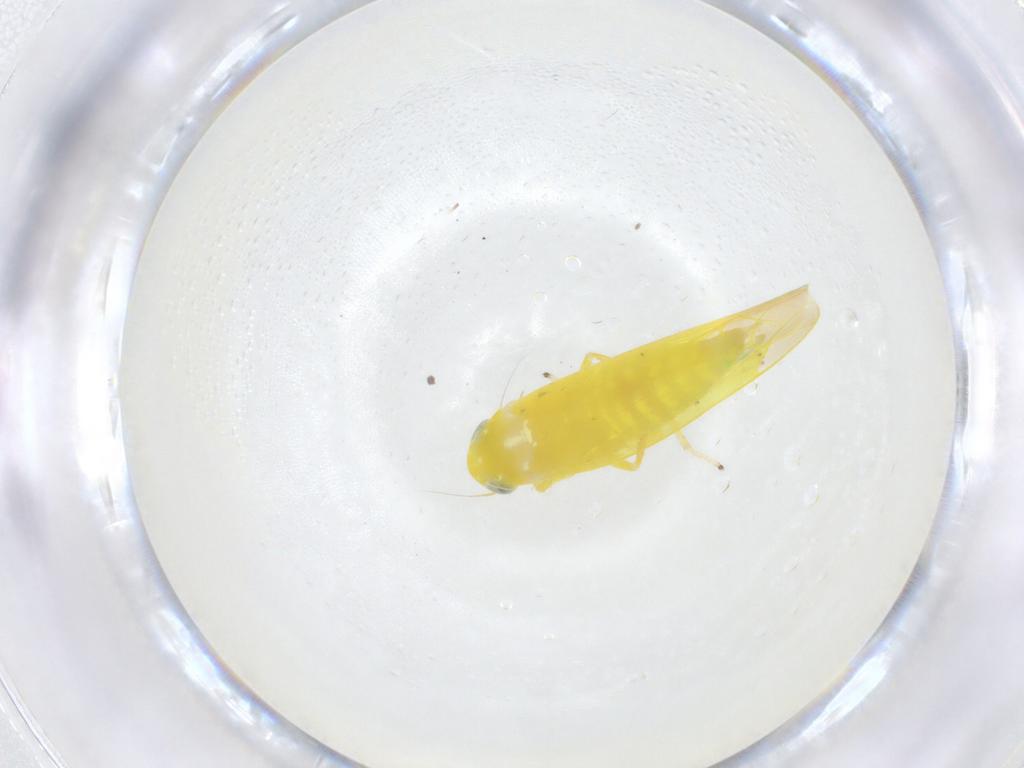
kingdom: Animalia
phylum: Arthropoda
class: Insecta
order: Hemiptera
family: Cicadellidae
